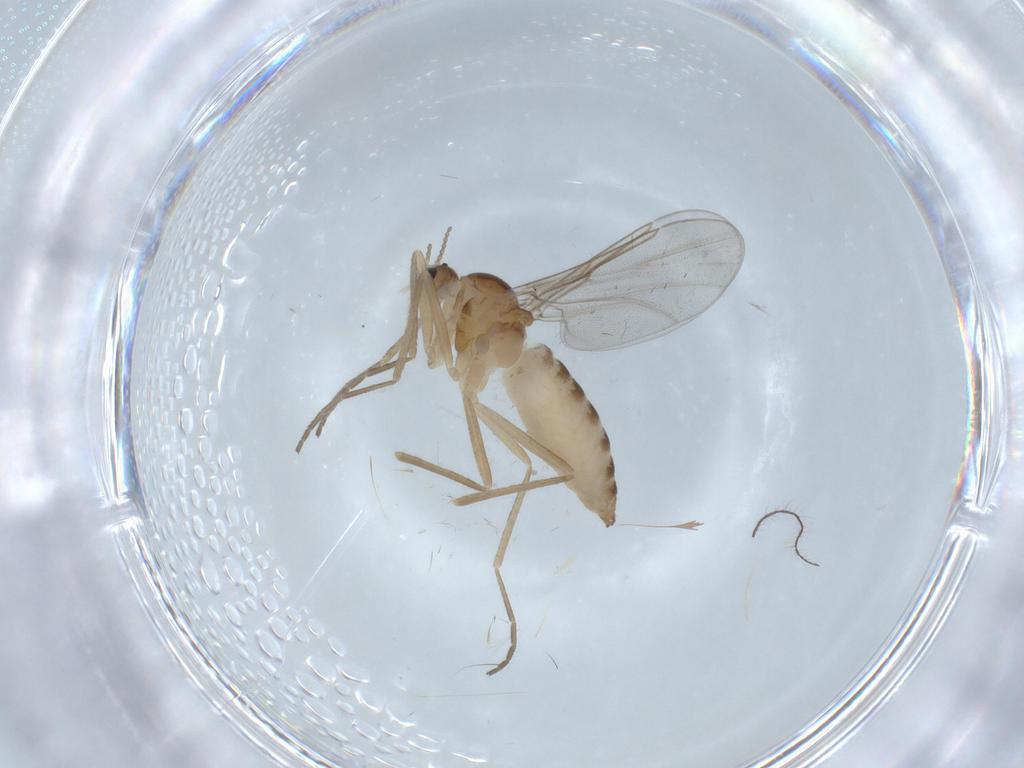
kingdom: Animalia
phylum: Arthropoda
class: Insecta
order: Diptera
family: Cecidomyiidae
